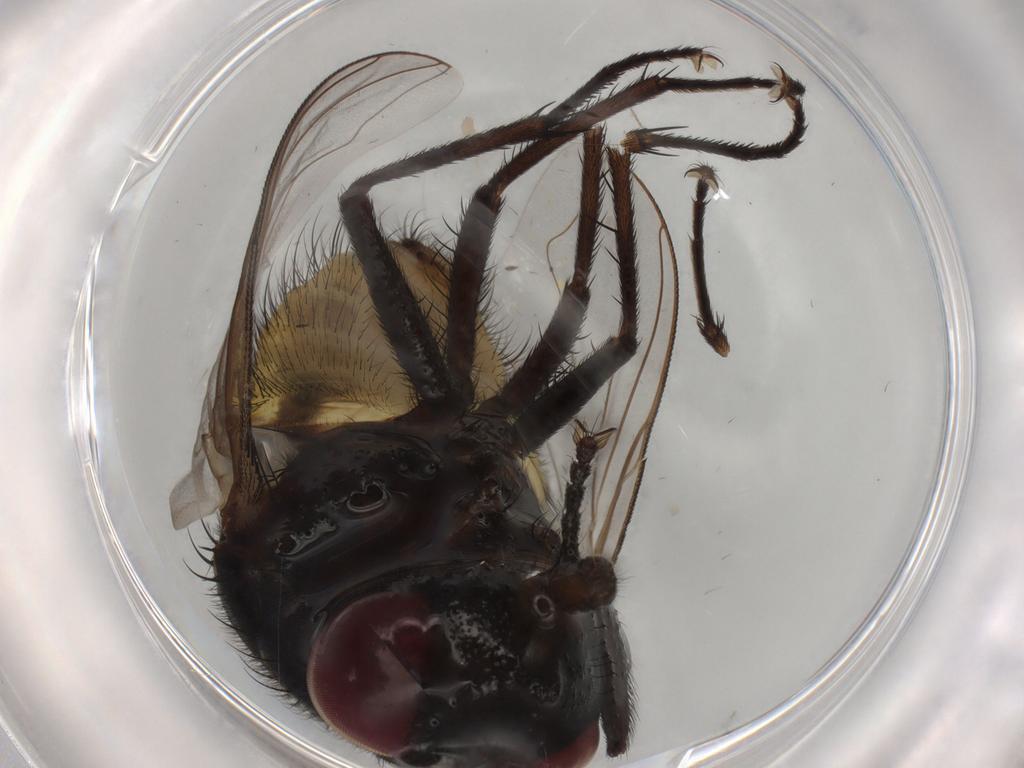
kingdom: Animalia
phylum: Arthropoda
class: Insecta
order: Diptera
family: Muscidae
